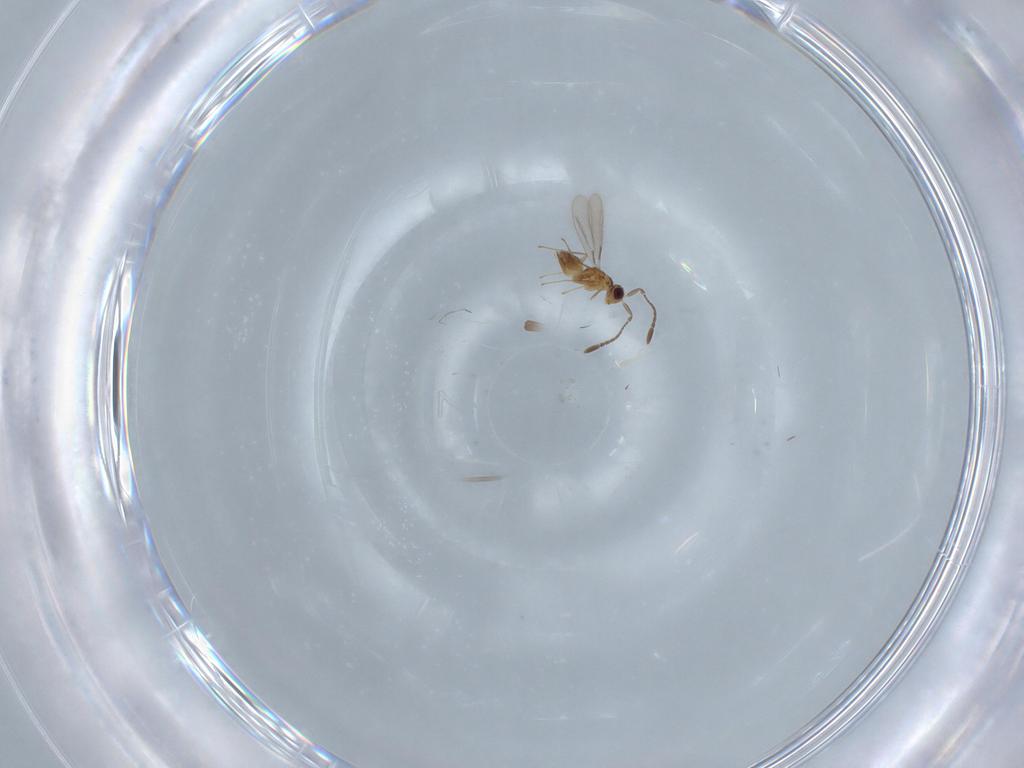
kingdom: Animalia
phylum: Arthropoda
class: Insecta
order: Hymenoptera
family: Mymaridae
